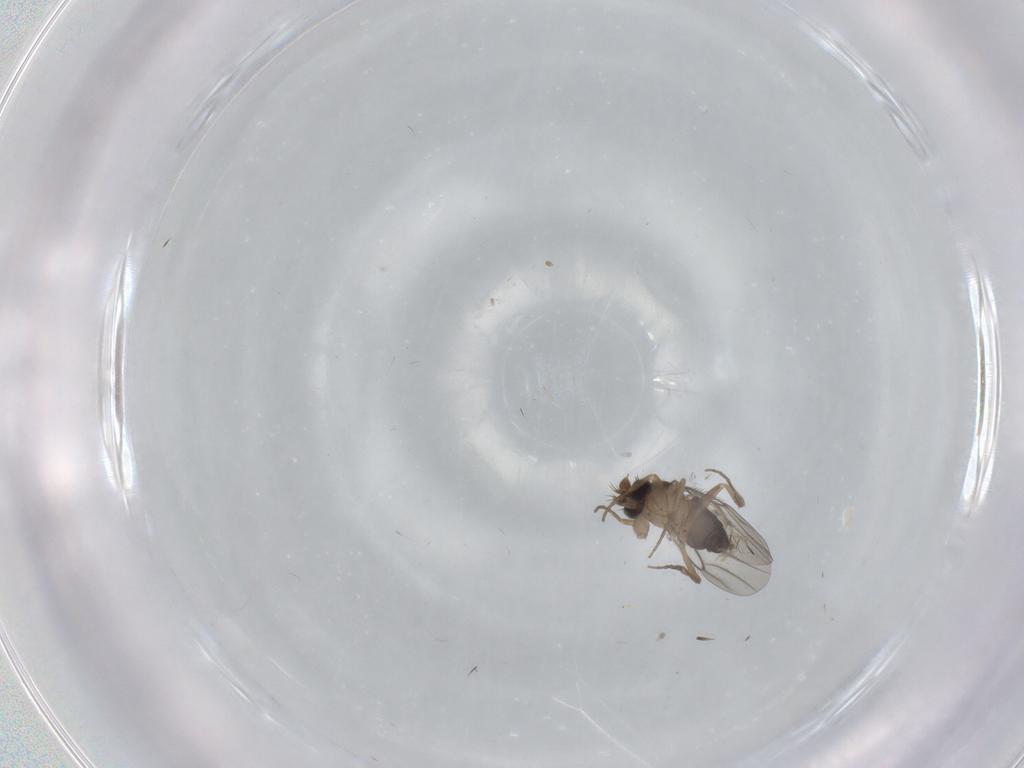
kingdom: Animalia
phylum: Arthropoda
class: Insecta
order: Diptera
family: Phoridae
